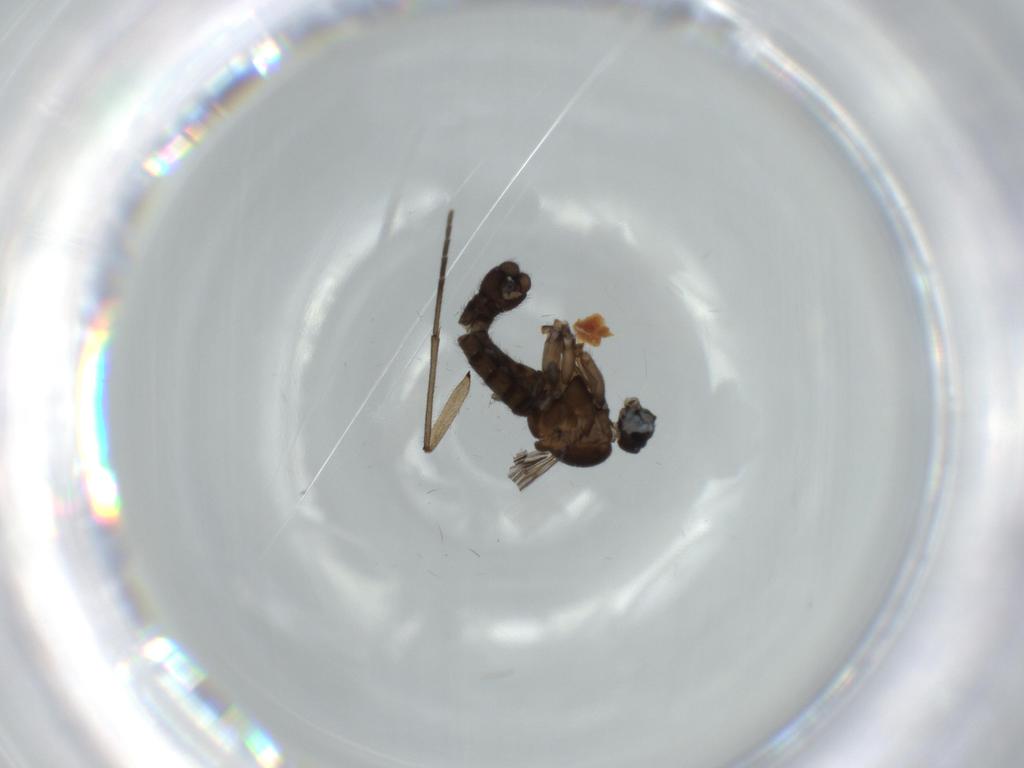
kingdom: Animalia
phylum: Arthropoda
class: Insecta
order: Diptera
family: Sciaridae
